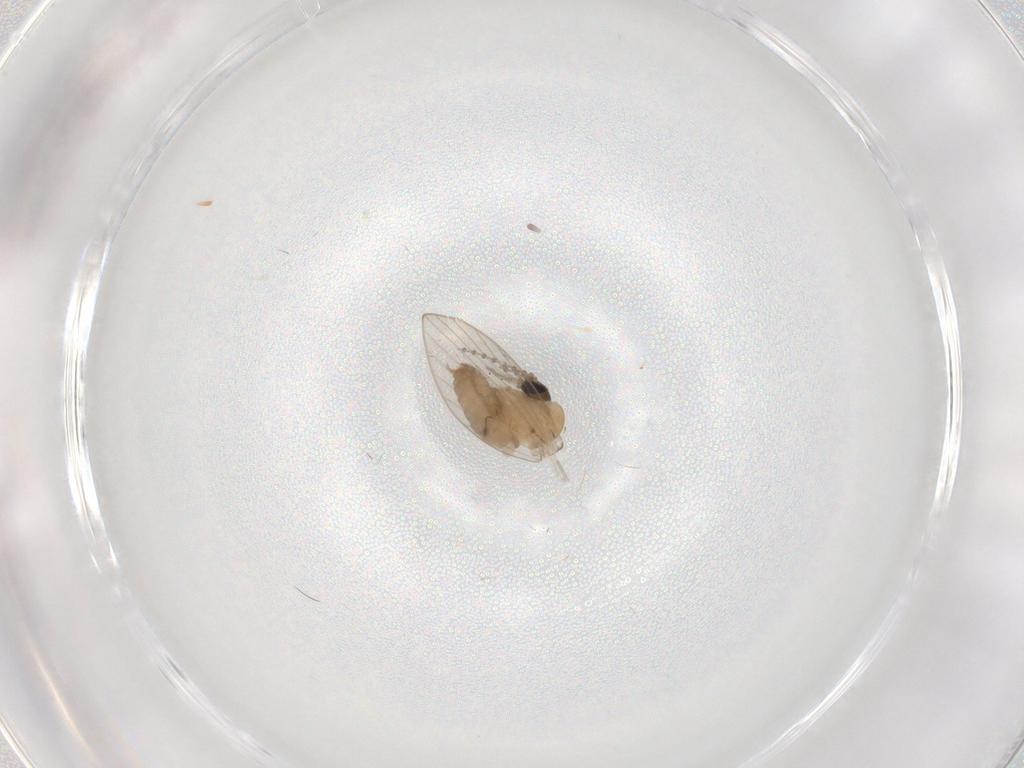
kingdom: Animalia
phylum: Arthropoda
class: Insecta
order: Diptera
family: Psychodidae
